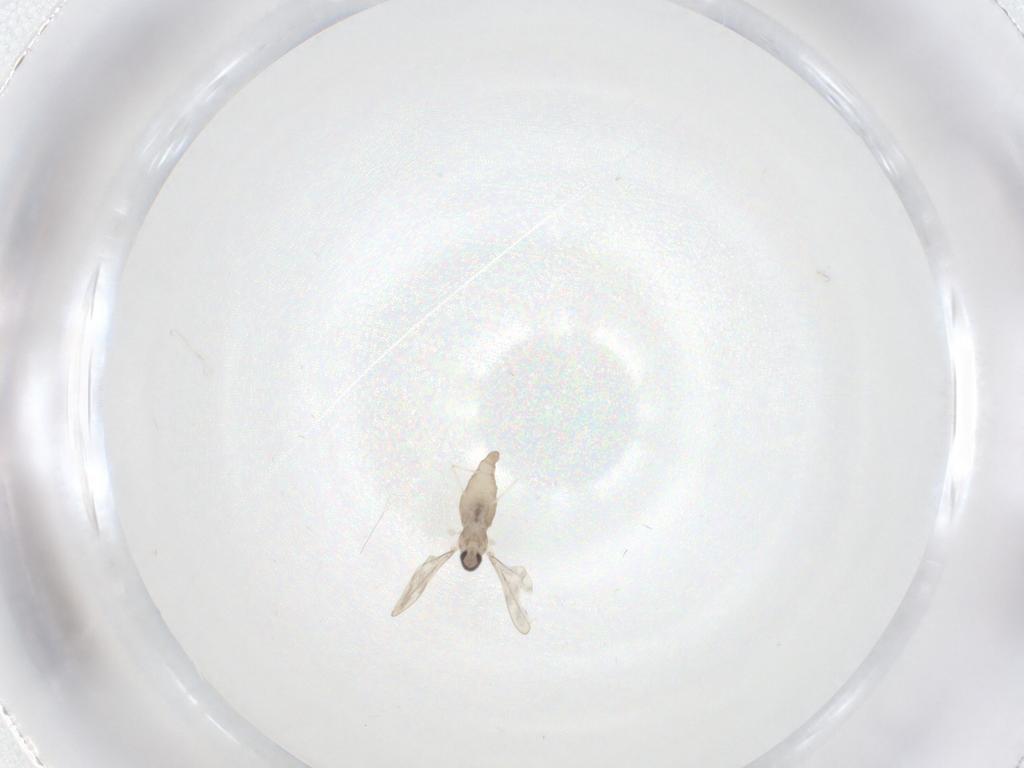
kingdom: Animalia
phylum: Arthropoda
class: Insecta
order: Diptera
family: Cecidomyiidae
